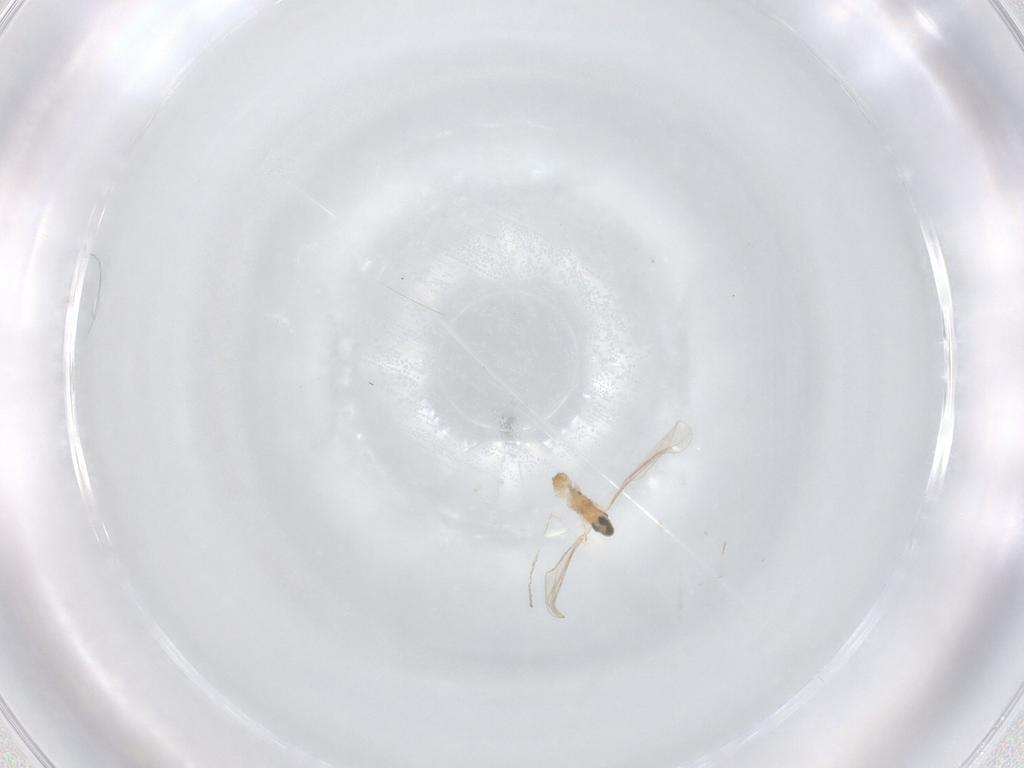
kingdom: Animalia
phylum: Arthropoda
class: Insecta
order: Diptera
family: Cecidomyiidae
